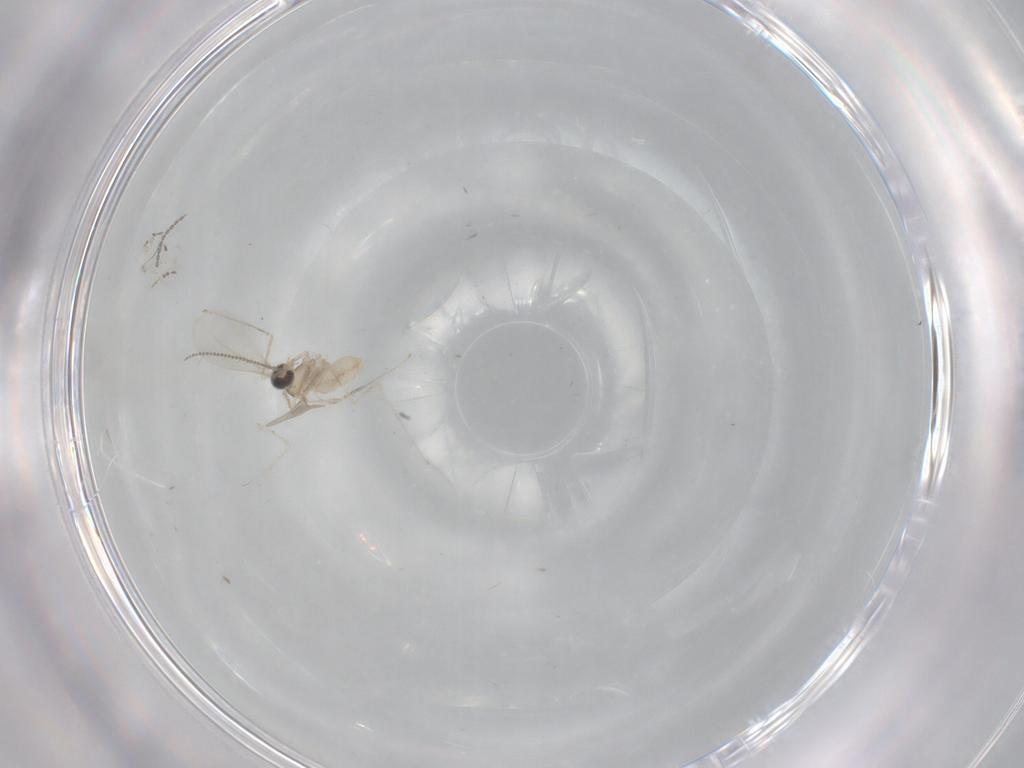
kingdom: Animalia
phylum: Arthropoda
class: Insecta
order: Diptera
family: Cecidomyiidae
